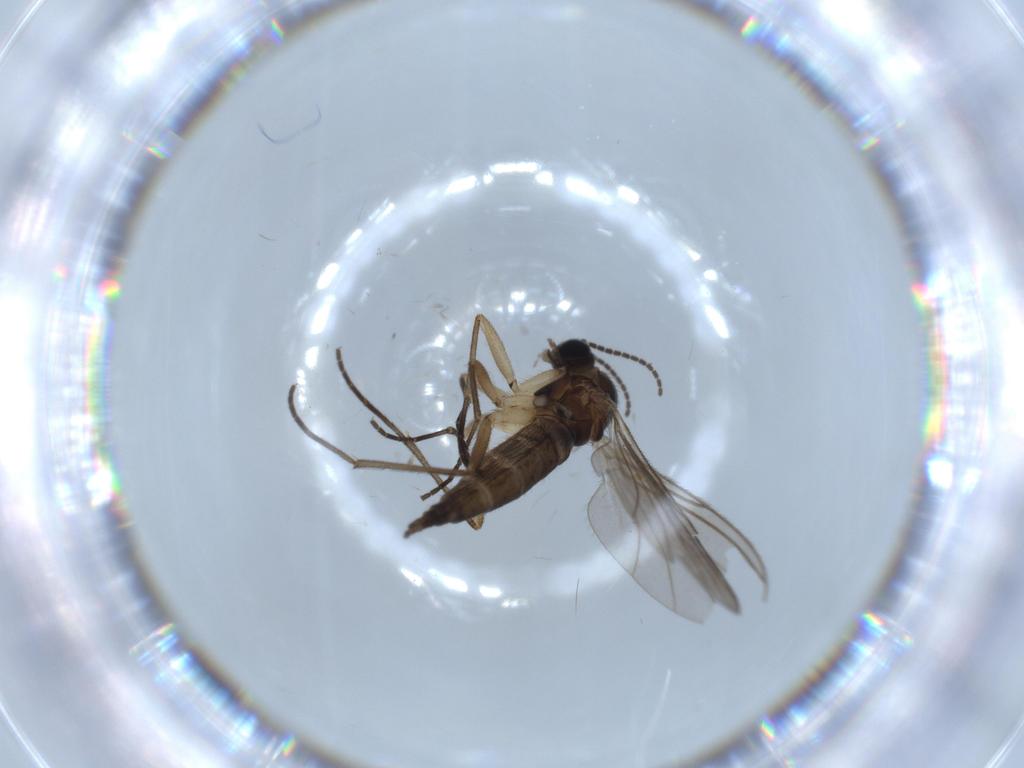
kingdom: Animalia
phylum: Arthropoda
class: Insecta
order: Diptera
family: Sciaridae
